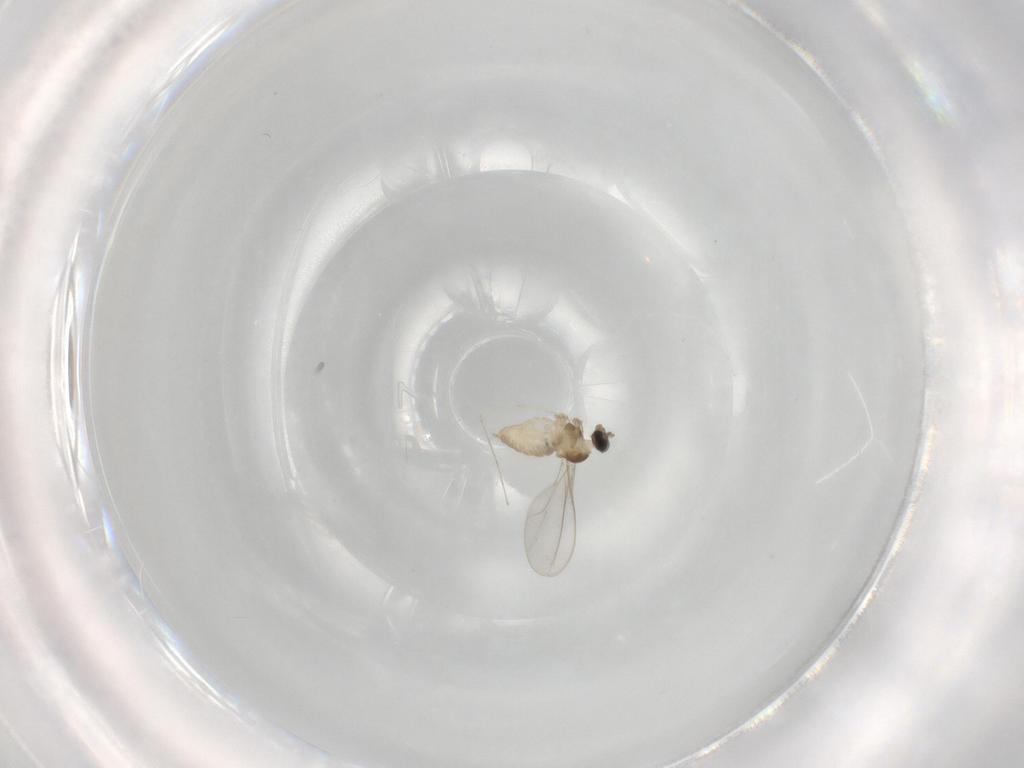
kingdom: Animalia
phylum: Arthropoda
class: Insecta
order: Diptera
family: Cecidomyiidae
